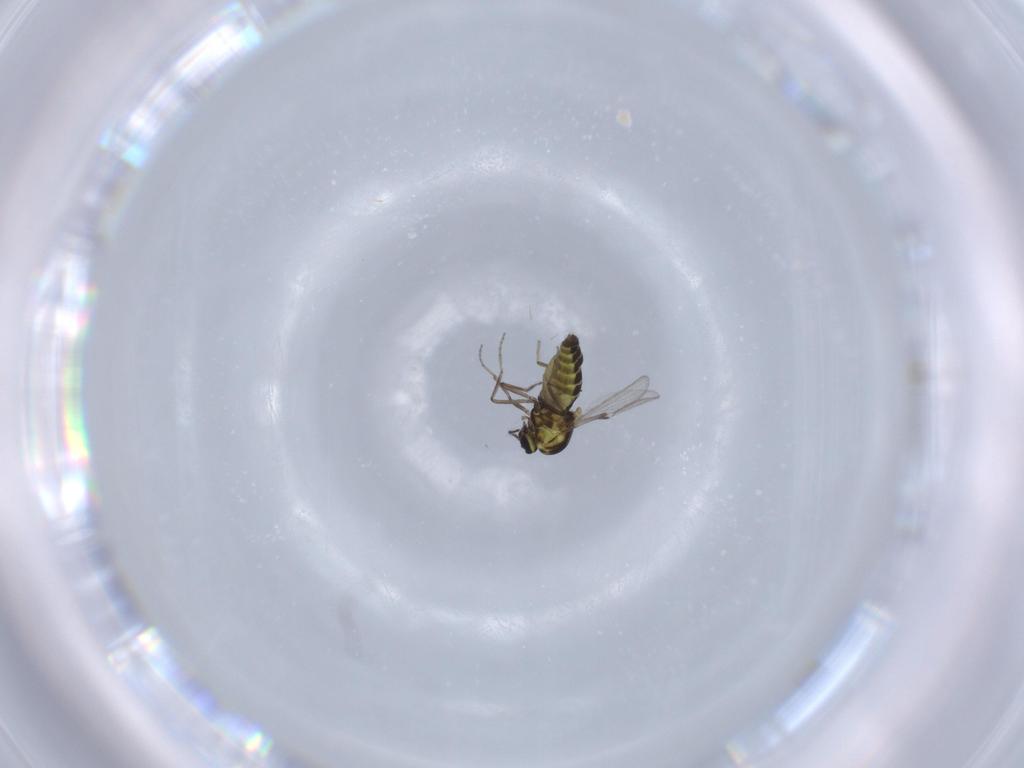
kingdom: Animalia
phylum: Arthropoda
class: Insecta
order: Diptera
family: Ceratopogonidae
